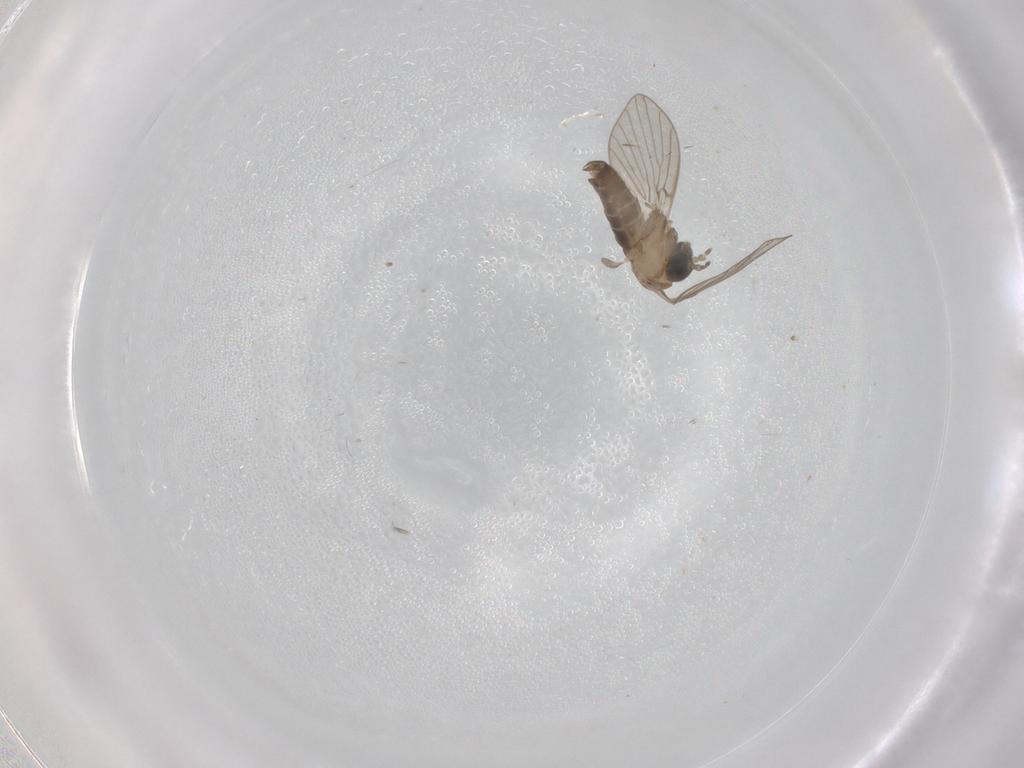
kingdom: Animalia
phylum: Arthropoda
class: Insecta
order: Diptera
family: Psychodidae
